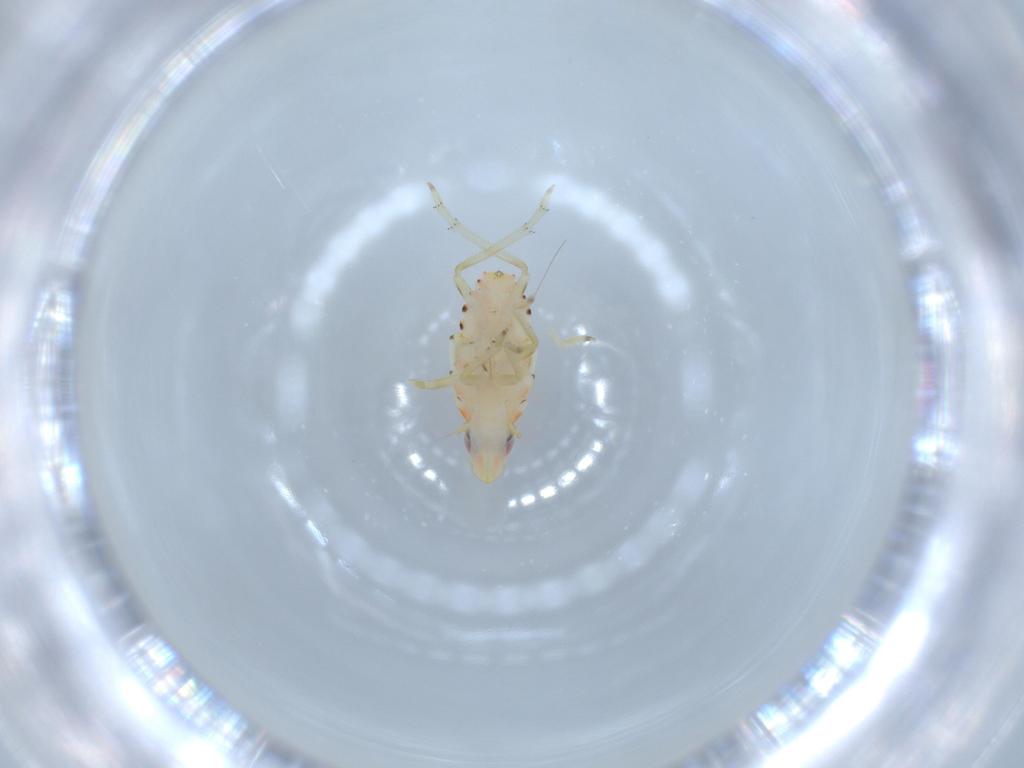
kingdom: Animalia
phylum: Arthropoda
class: Insecta
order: Hemiptera
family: Tropiduchidae
